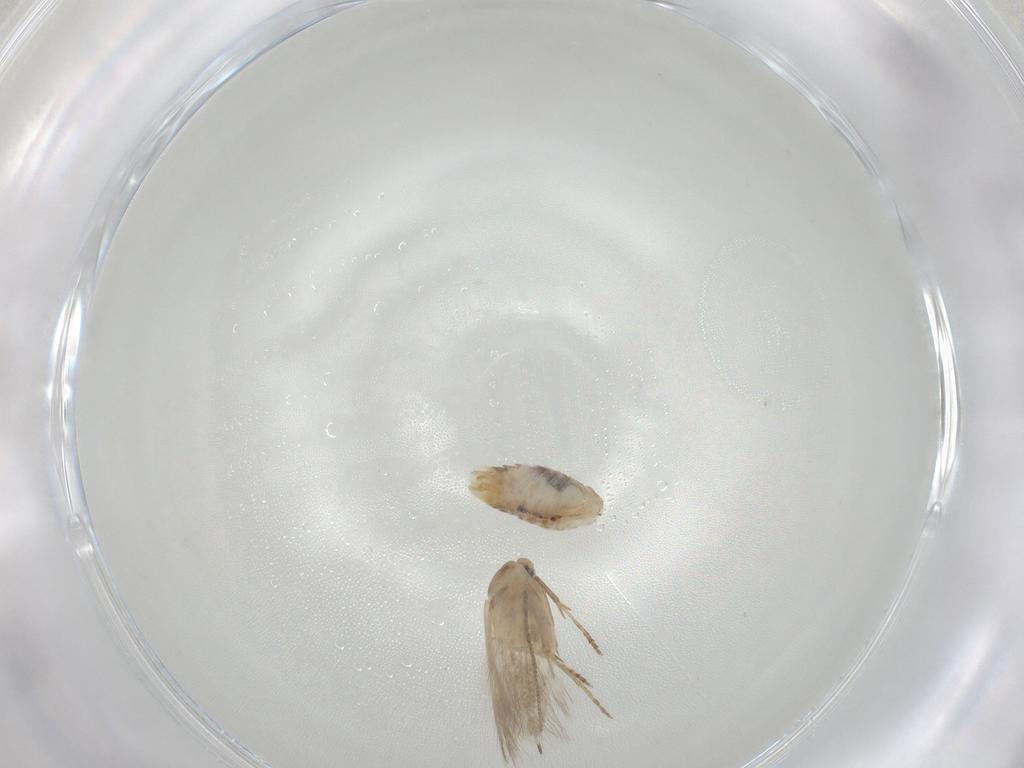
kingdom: Animalia
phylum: Arthropoda
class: Insecta
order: Lepidoptera
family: Bucculatricidae
